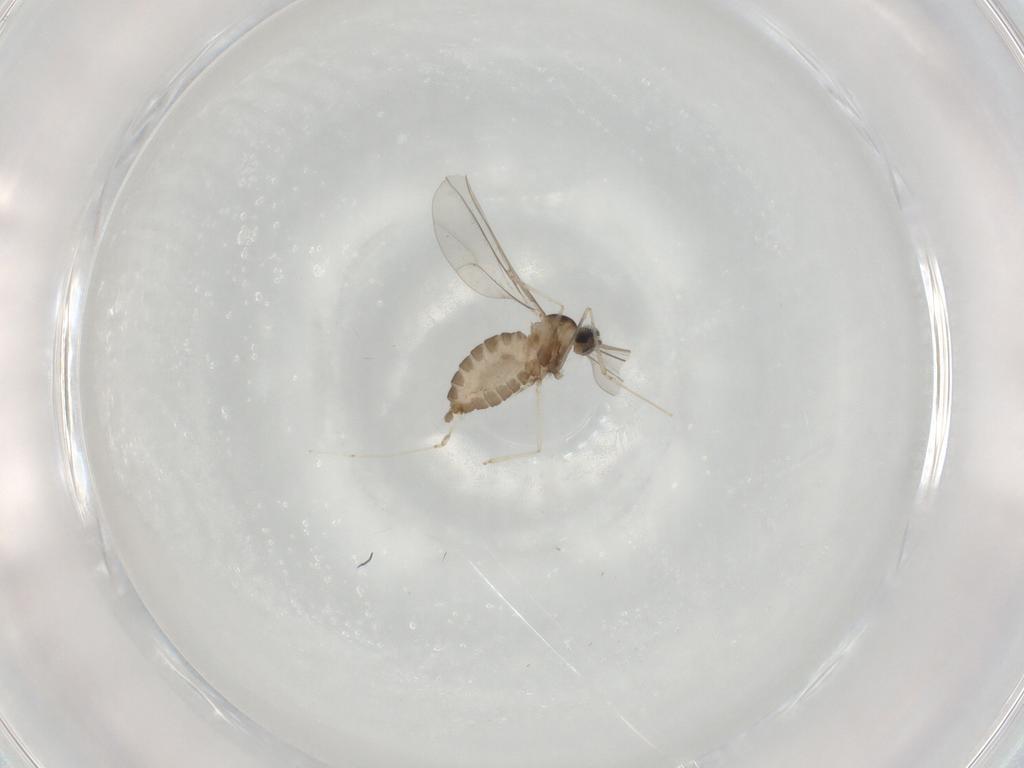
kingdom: Animalia
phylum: Arthropoda
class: Insecta
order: Diptera
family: Cecidomyiidae
